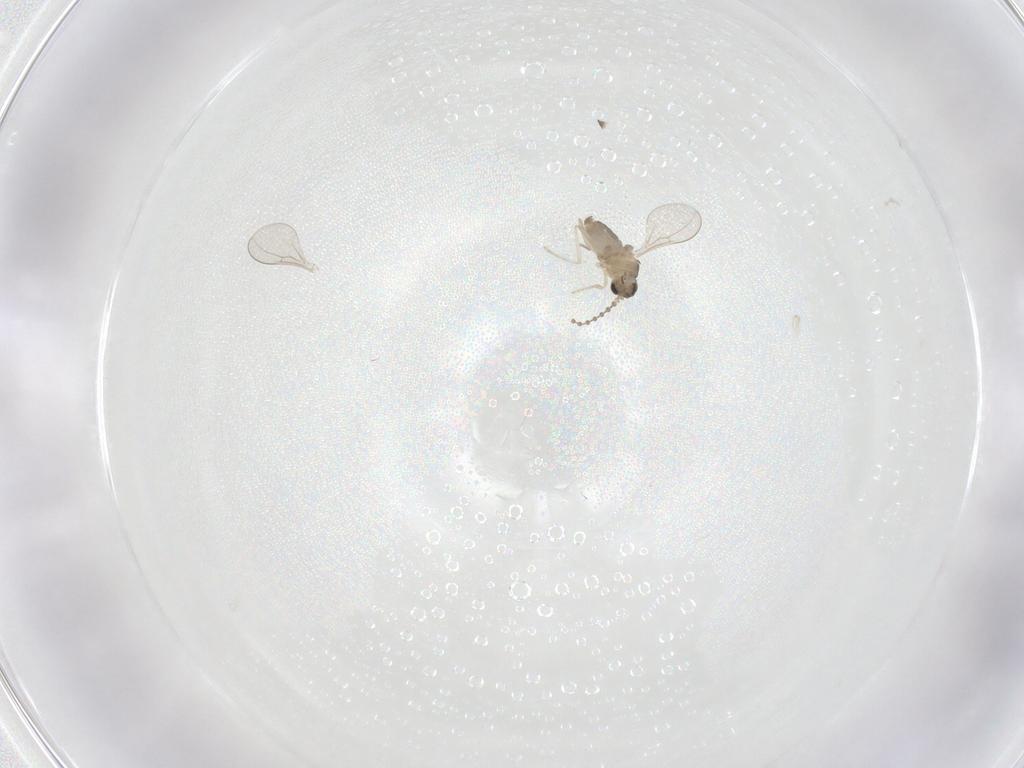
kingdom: Animalia
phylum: Arthropoda
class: Insecta
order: Diptera
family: Cecidomyiidae
